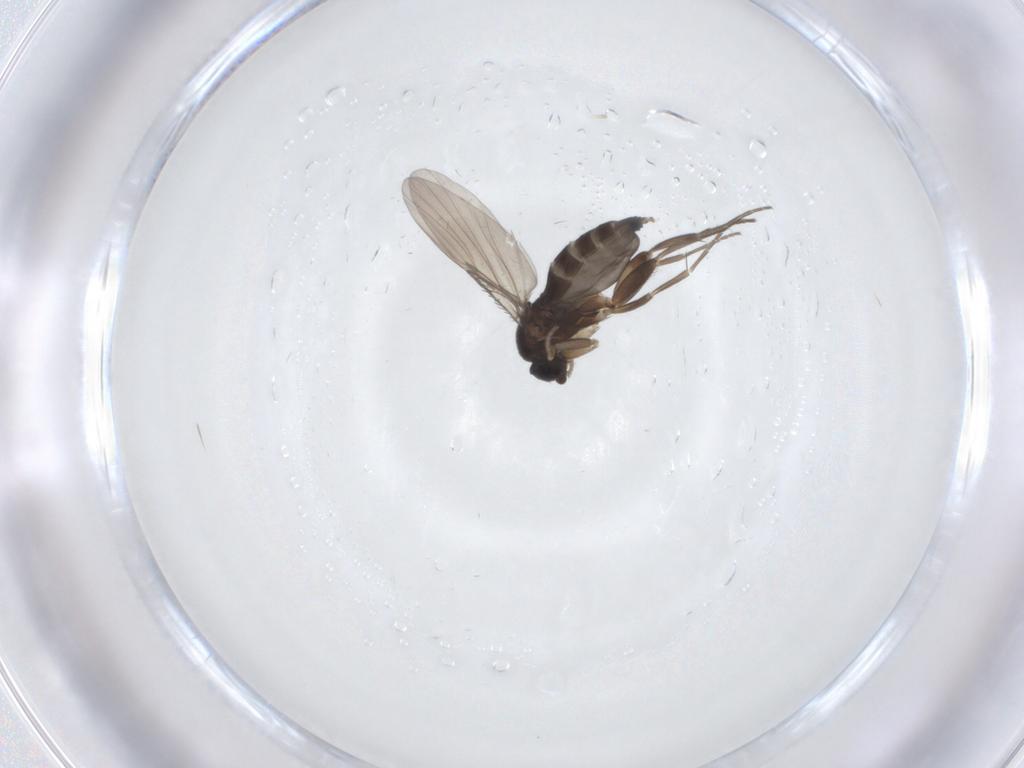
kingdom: Animalia
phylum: Arthropoda
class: Insecta
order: Diptera
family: Phoridae
